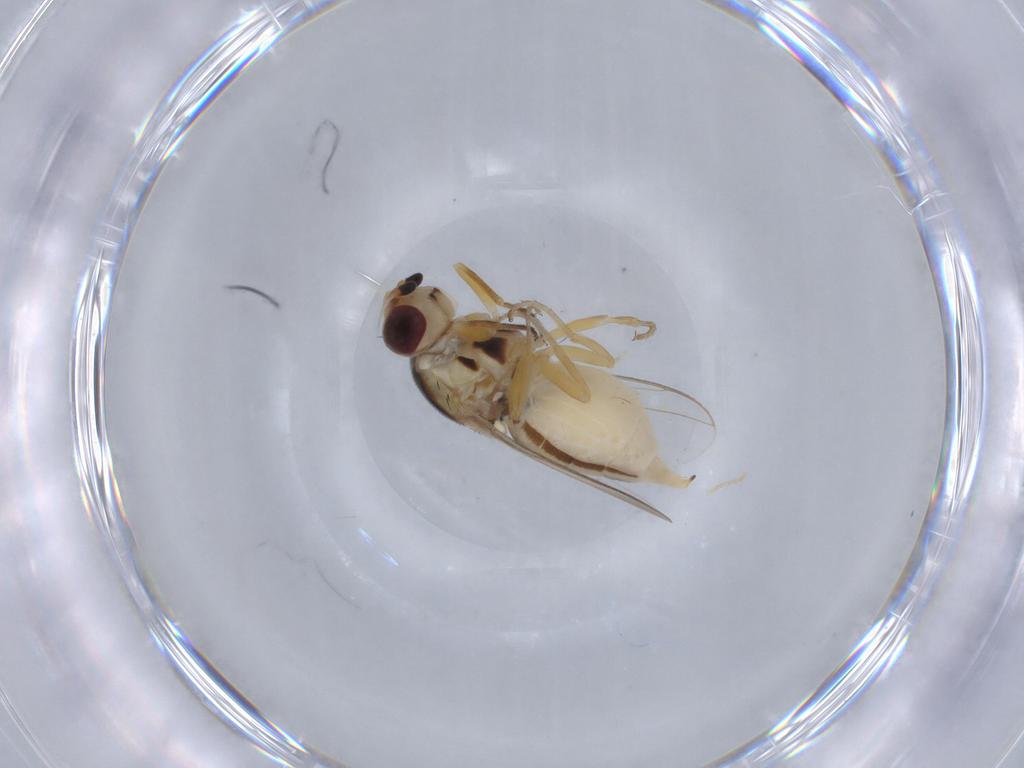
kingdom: Animalia
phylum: Arthropoda
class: Insecta
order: Diptera
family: Chloropidae
